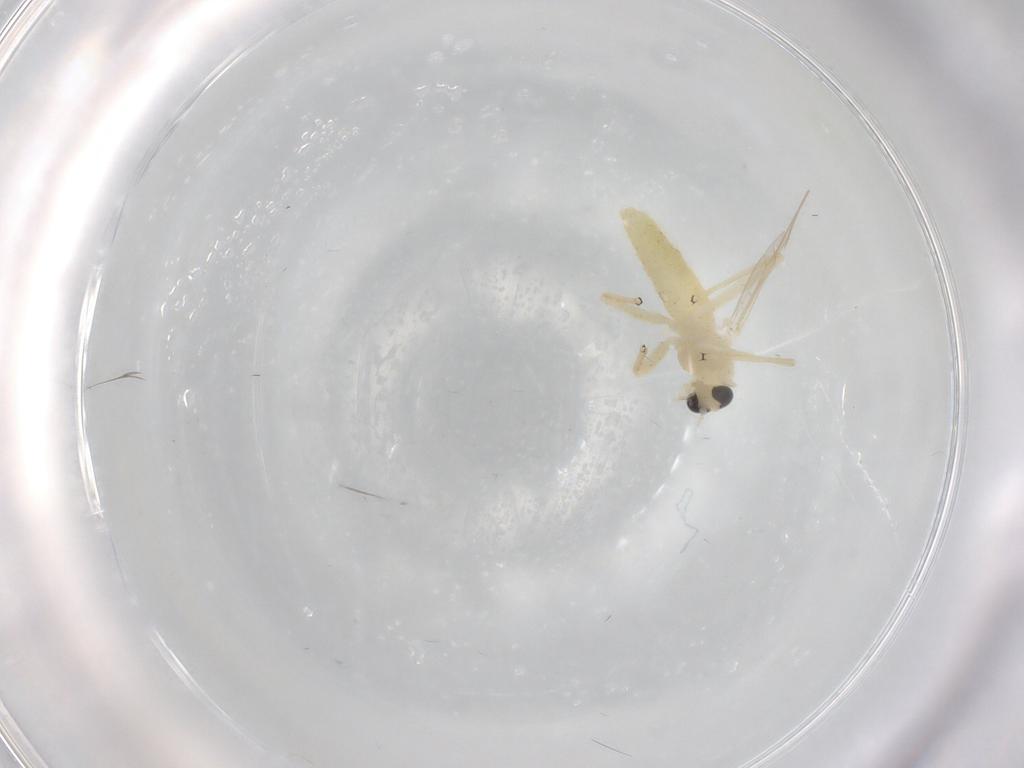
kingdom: Animalia
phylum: Arthropoda
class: Insecta
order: Diptera
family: Chironomidae
